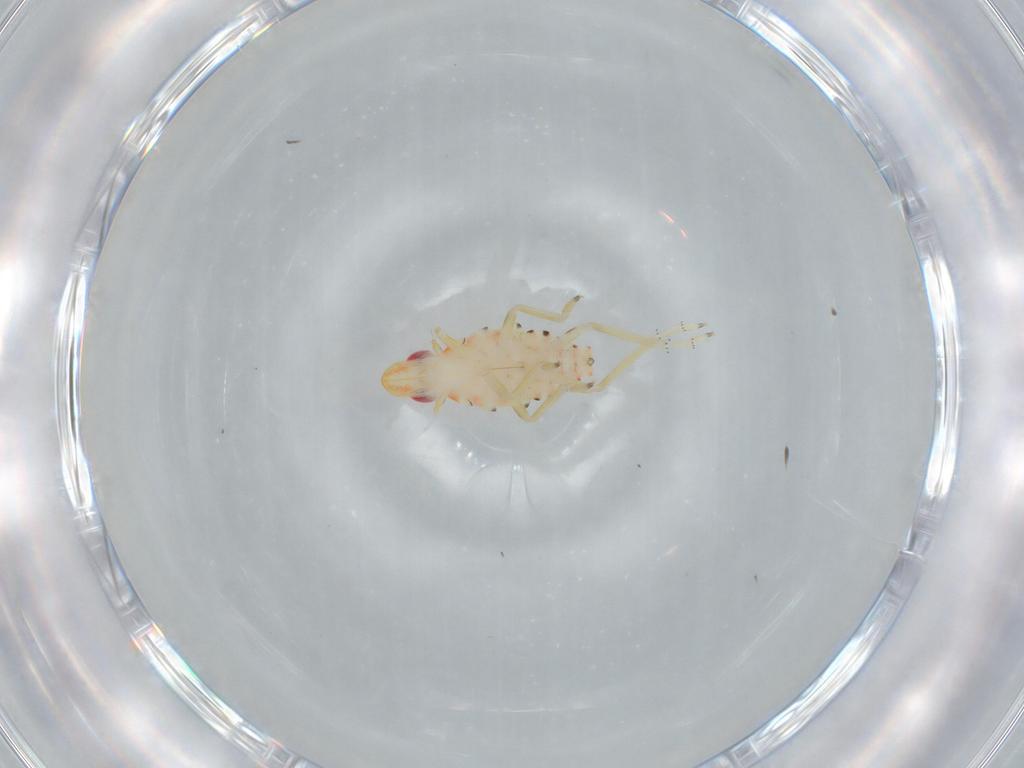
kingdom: Animalia
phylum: Arthropoda
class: Insecta
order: Hemiptera
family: Tropiduchidae
